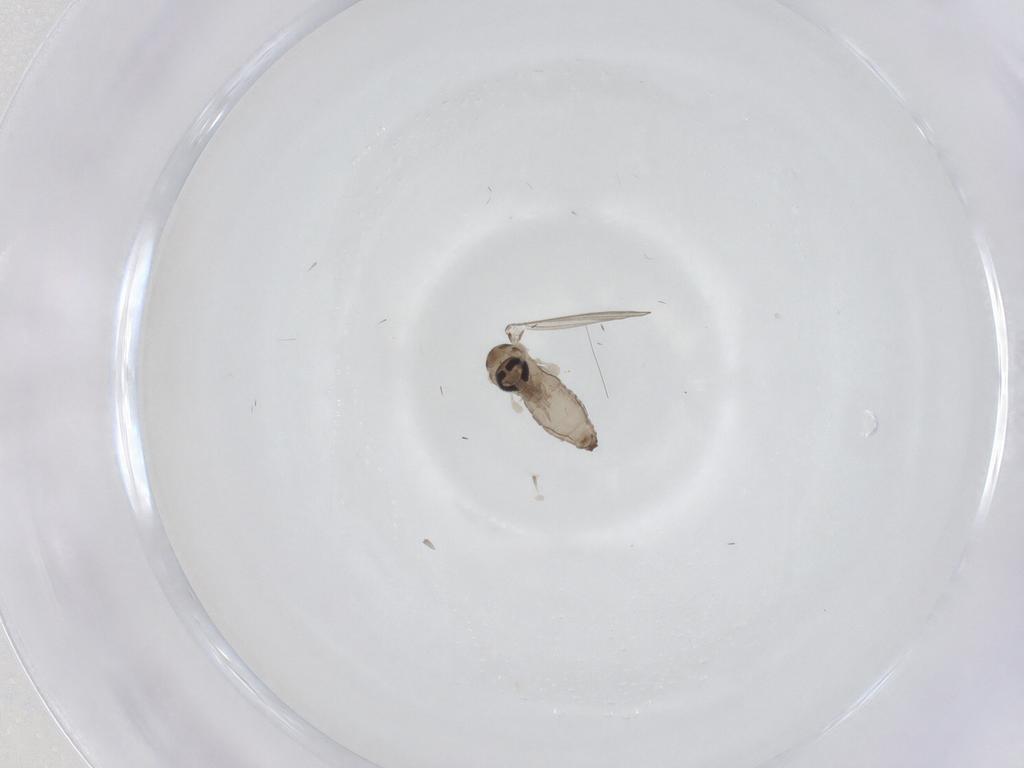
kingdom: Animalia
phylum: Arthropoda
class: Insecta
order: Diptera
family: Psychodidae
